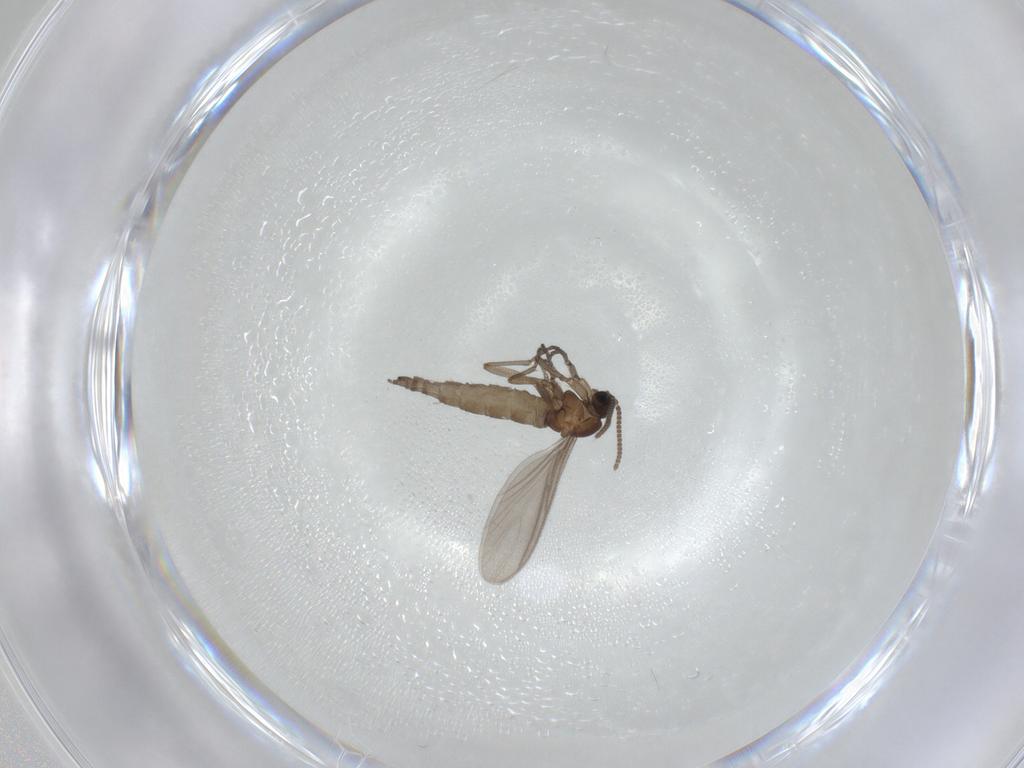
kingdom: Animalia
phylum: Arthropoda
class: Insecta
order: Diptera
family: Sciaridae
